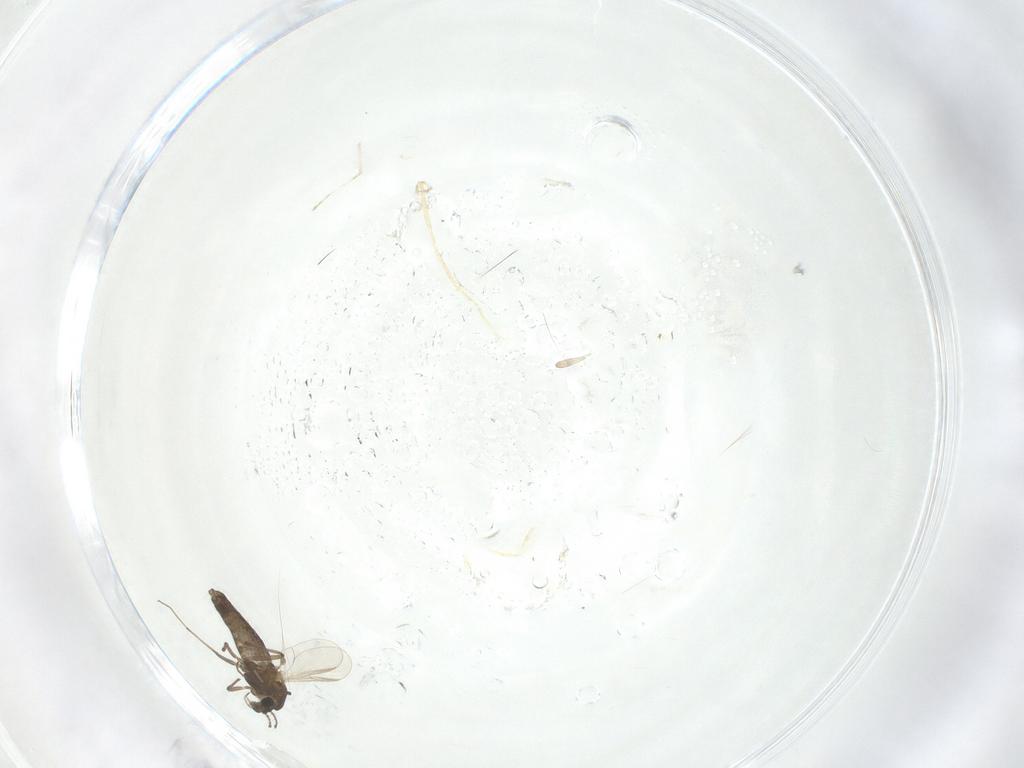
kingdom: Animalia
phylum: Arthropoda
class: Insecta
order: Diptera
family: Chironomidae
